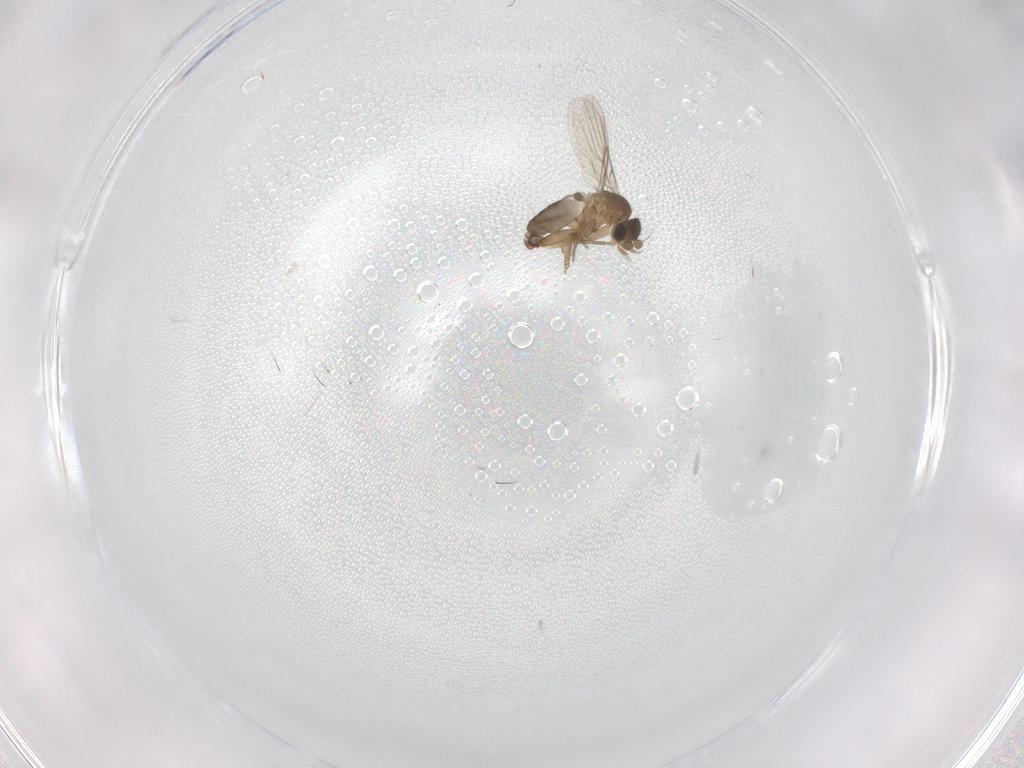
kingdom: Animalia
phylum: Arthropoda
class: Insecta
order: Diptera
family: Phoridae
